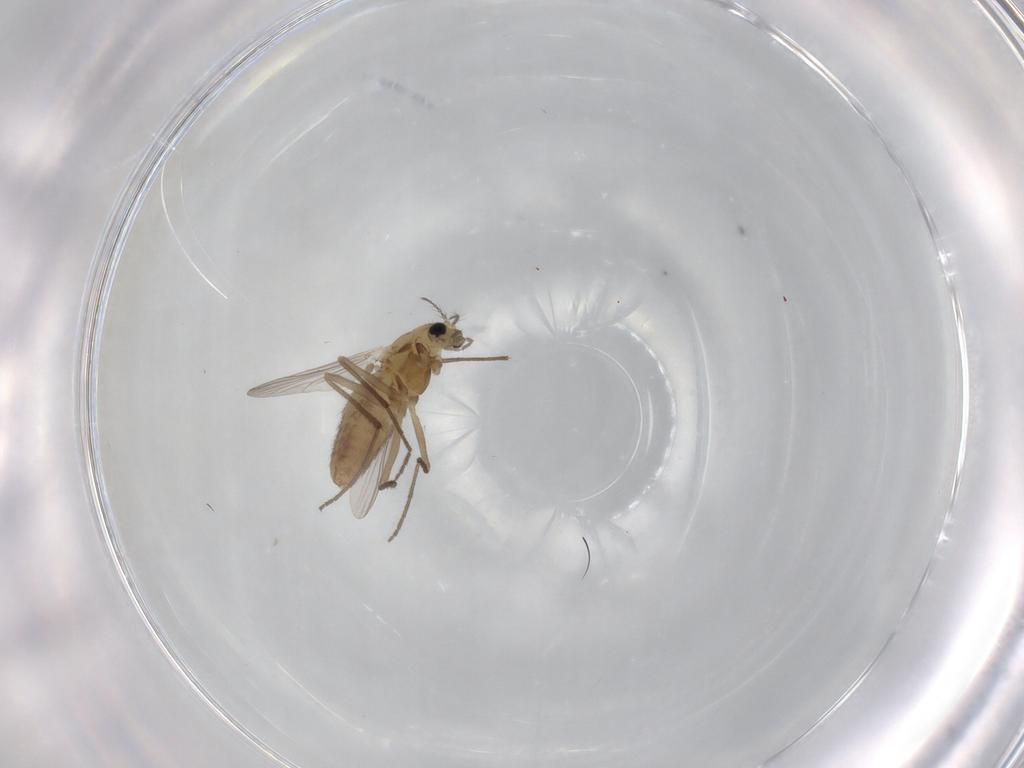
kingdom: Animalia
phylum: Arthropoda
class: Insecta
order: Diptera
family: Chironomidae
